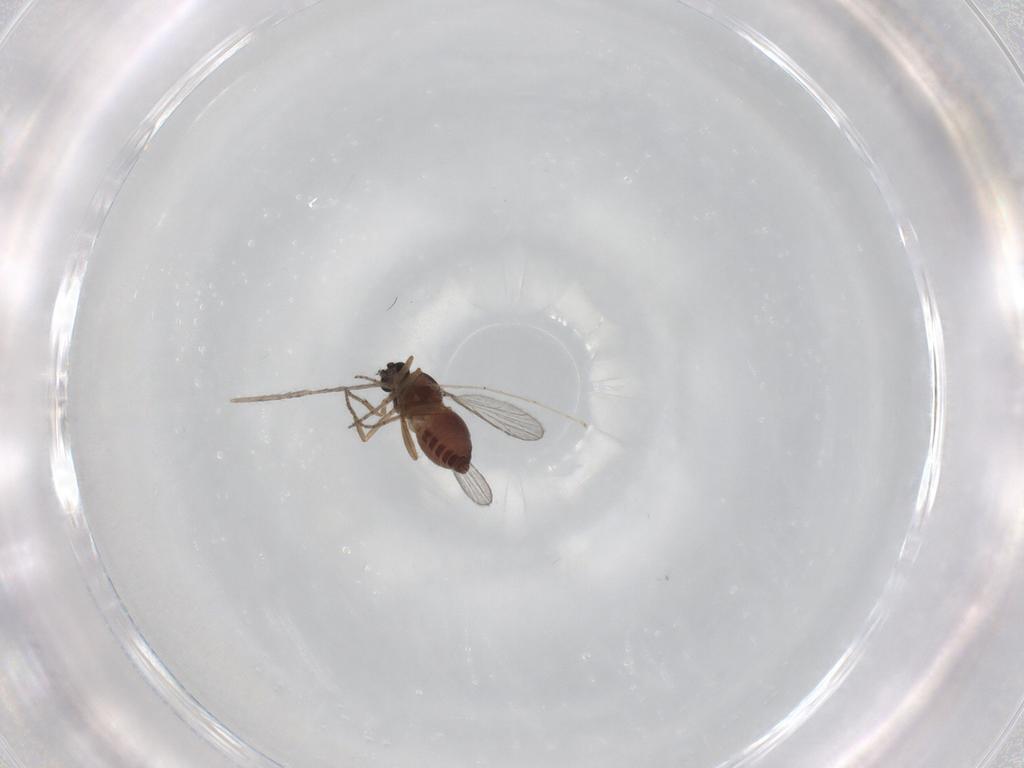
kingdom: Animalia
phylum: Arthropoda
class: Insecta
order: Diptera
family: Cecidomyiidae
